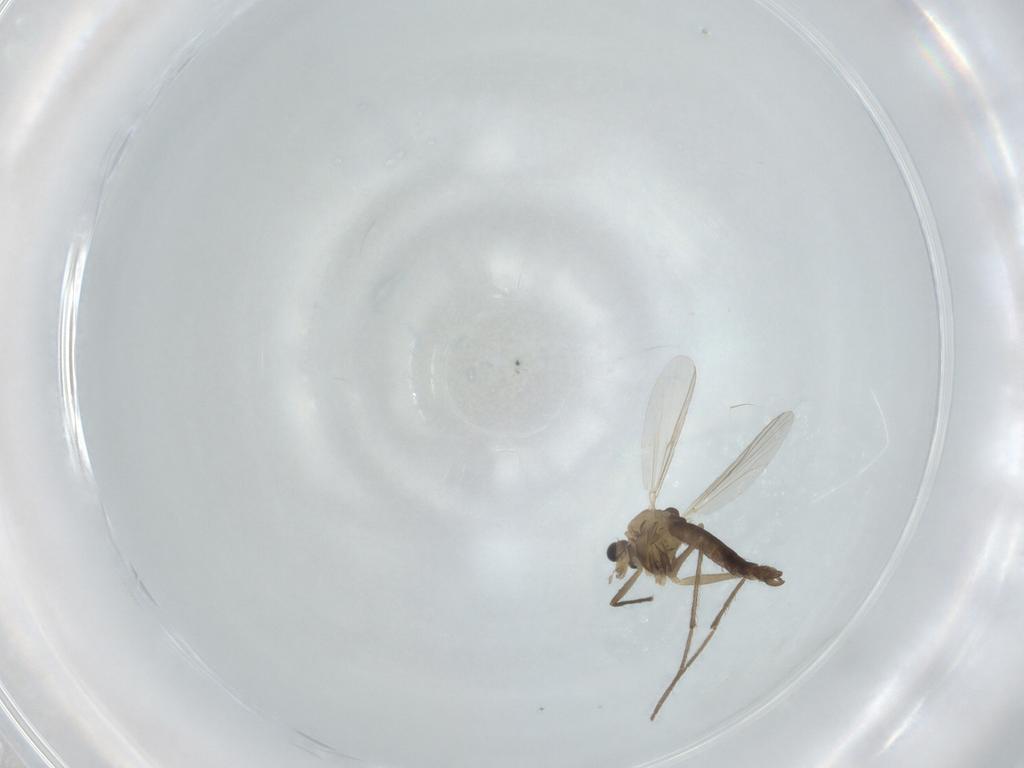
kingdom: Animalia
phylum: Arthropoda
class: Insecta
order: Diptera
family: Chironomidae
